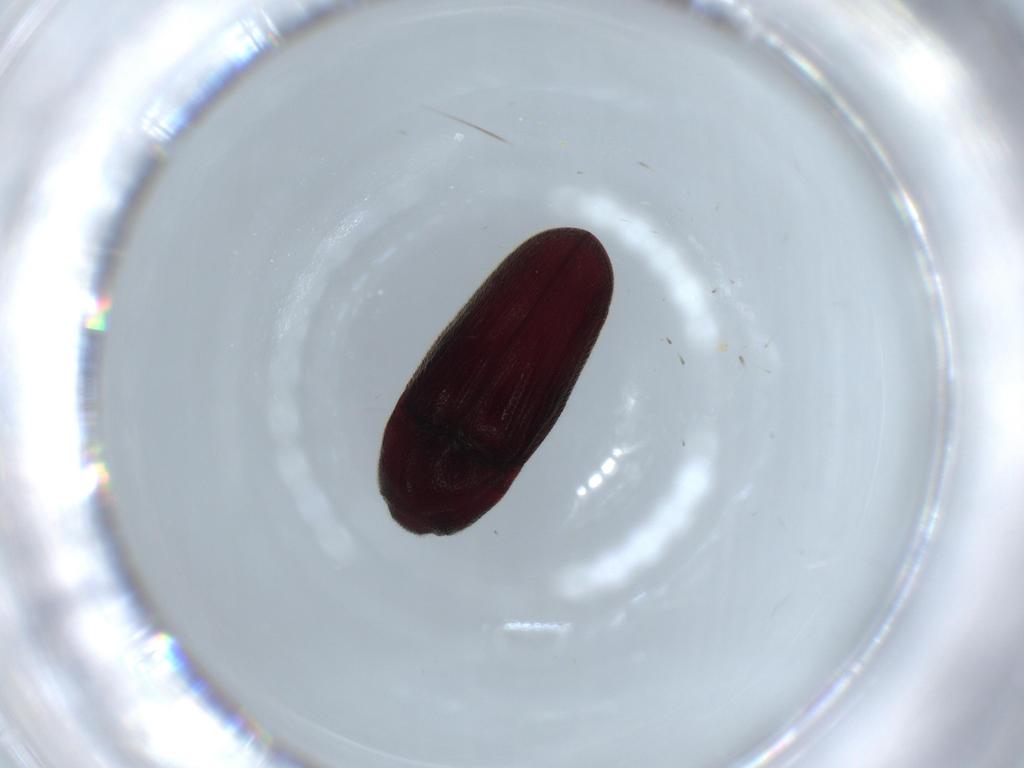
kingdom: Animalia
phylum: Arthropoda
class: Insecta
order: Coleoptera
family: Throscidae
